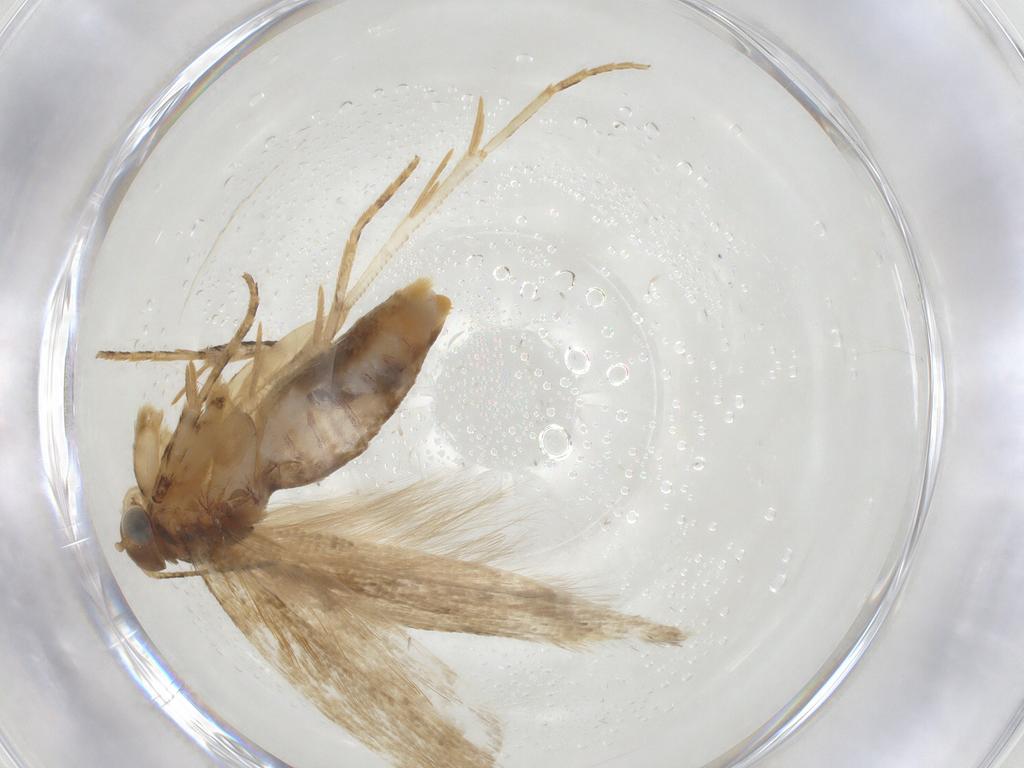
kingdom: Animalia
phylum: Arthropoda
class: Insecta
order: Lepidoptera
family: Gelechiidae
